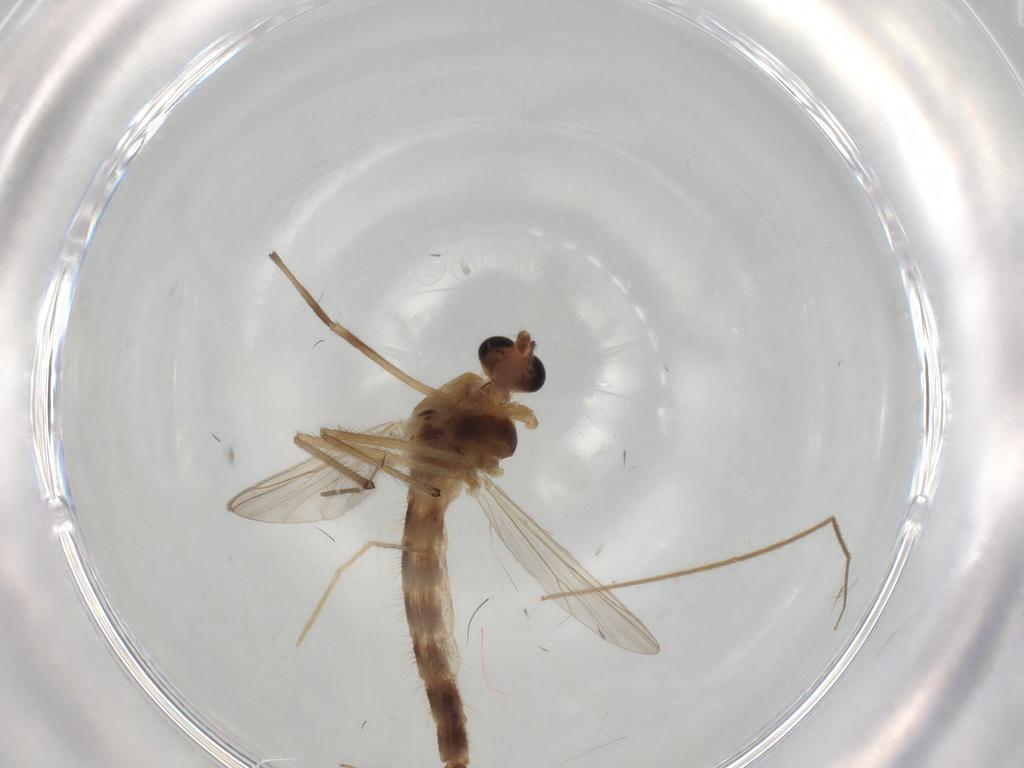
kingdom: Animalia
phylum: Arthropoda
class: Insecta
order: Diptera
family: Chironomidae
